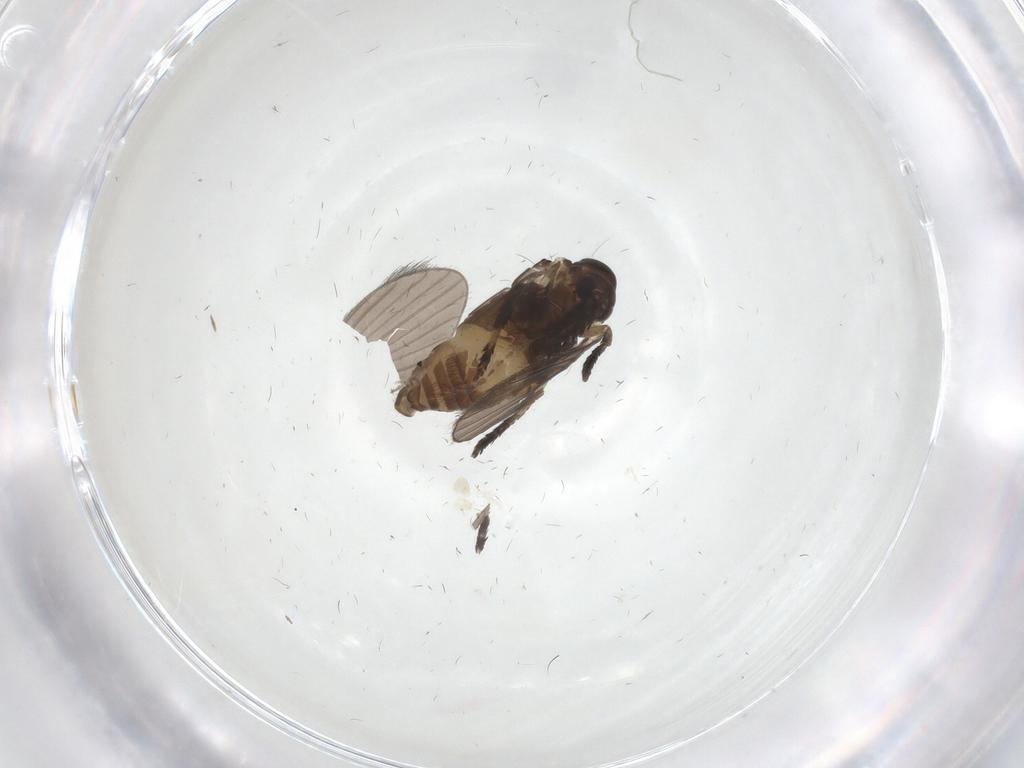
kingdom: Animalia
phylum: Arthropoda
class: Insecta
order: Diptera
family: Psychodidae
